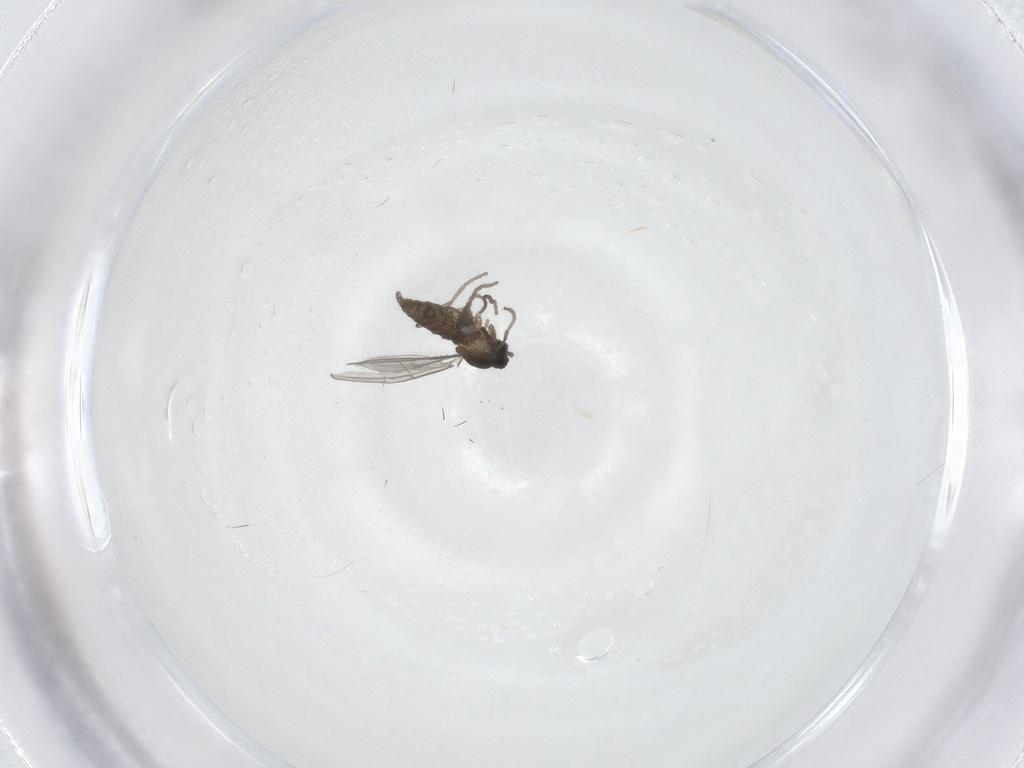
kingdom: Animalia
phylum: Arthropoda
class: Insecta
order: Diptera
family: Cecidomyiidae
